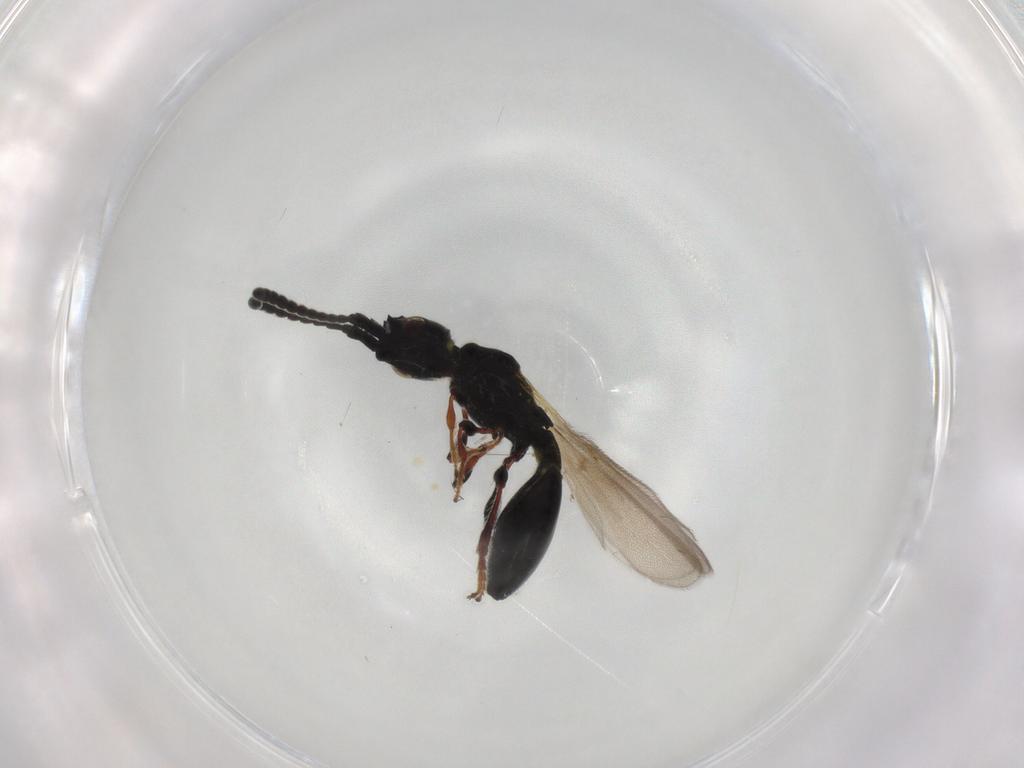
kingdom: Animalia
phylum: Arthropoda
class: Insecta
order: Hymenoptera
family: Diapriidae
